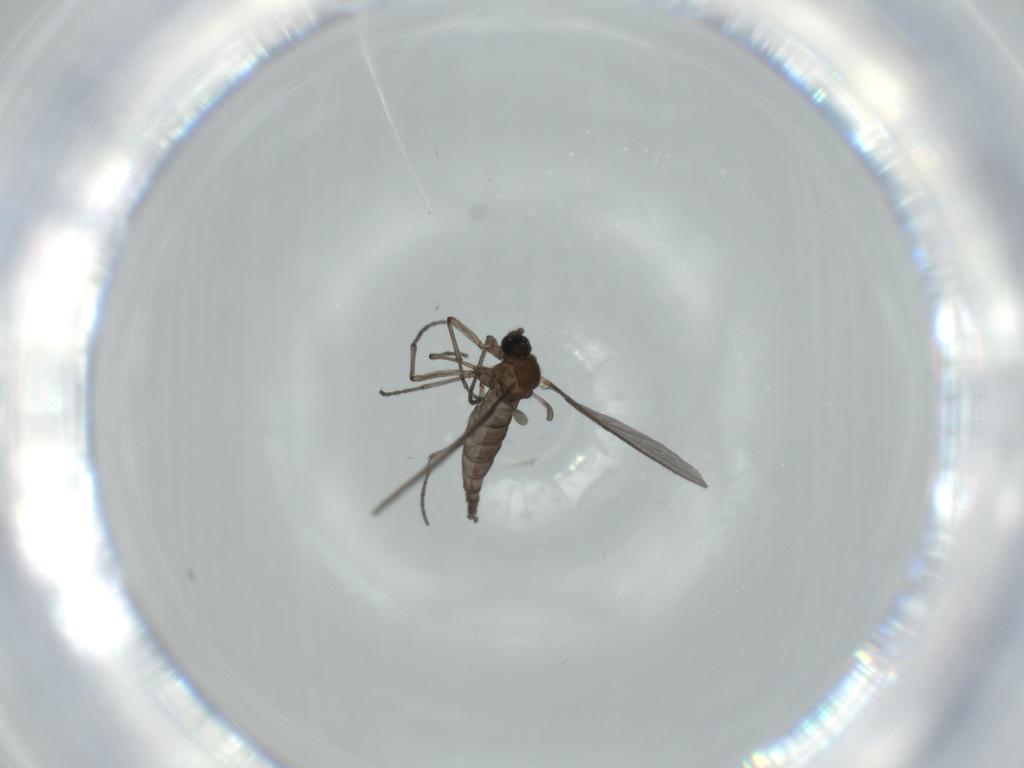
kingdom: Animalia
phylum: Arthropoda
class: Insecta
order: Diptera
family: Sciaridae
